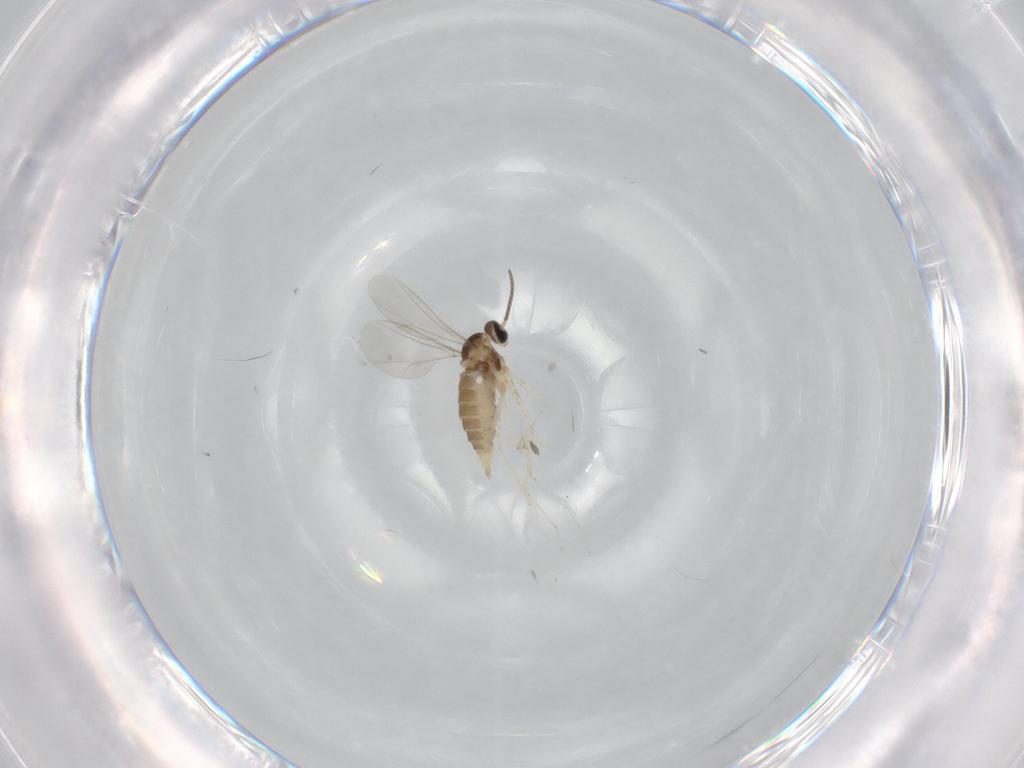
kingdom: Animalia
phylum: Arthropoda
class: Insecta
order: Diptera
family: Cecidomyiidae
